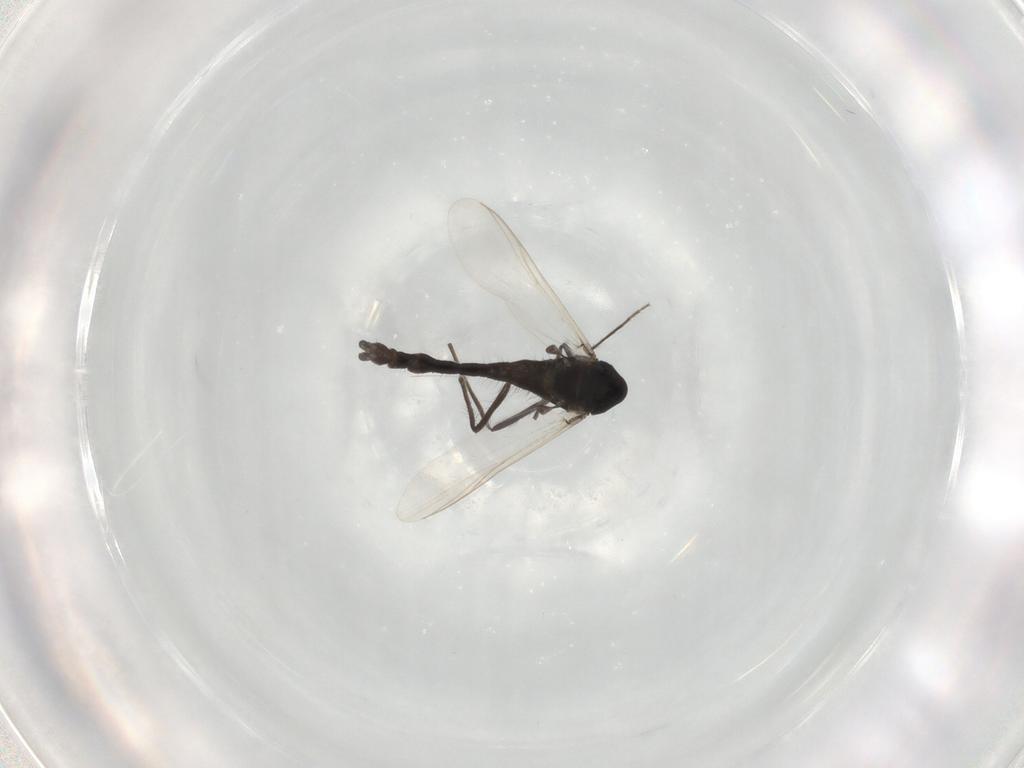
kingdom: Animalia
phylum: Arthropoda
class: Insecta
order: Diptera
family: Chironomidae
